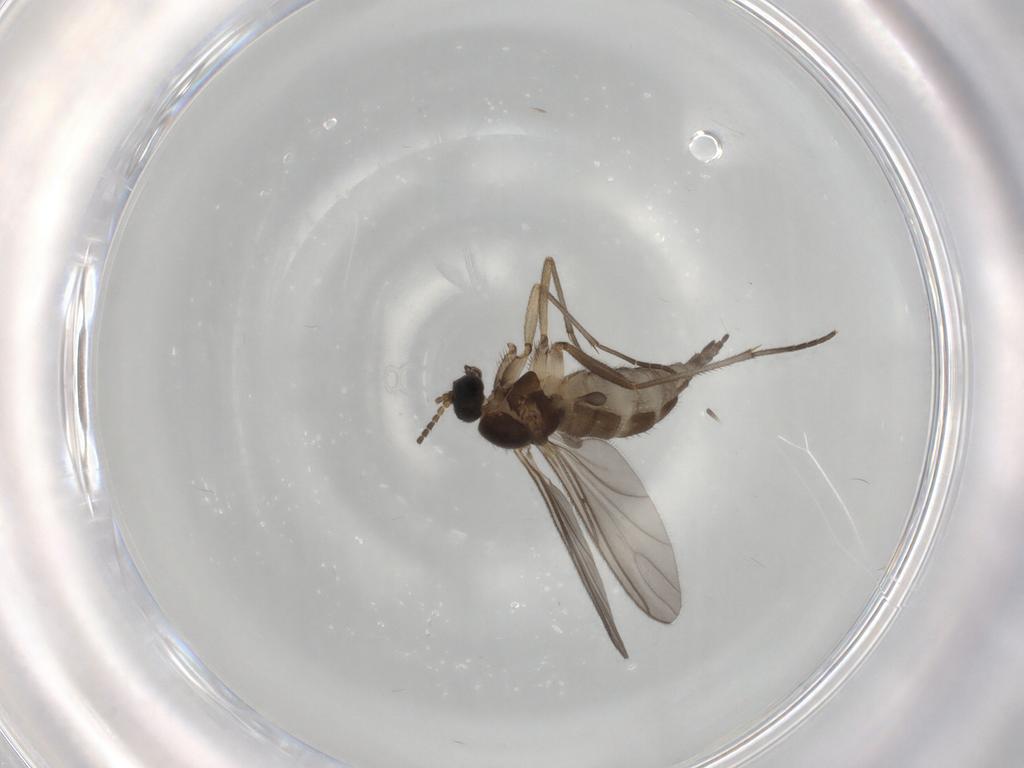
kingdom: Animalia
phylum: Arthropoda
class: Insecta
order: Diptera
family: Sciaridae
